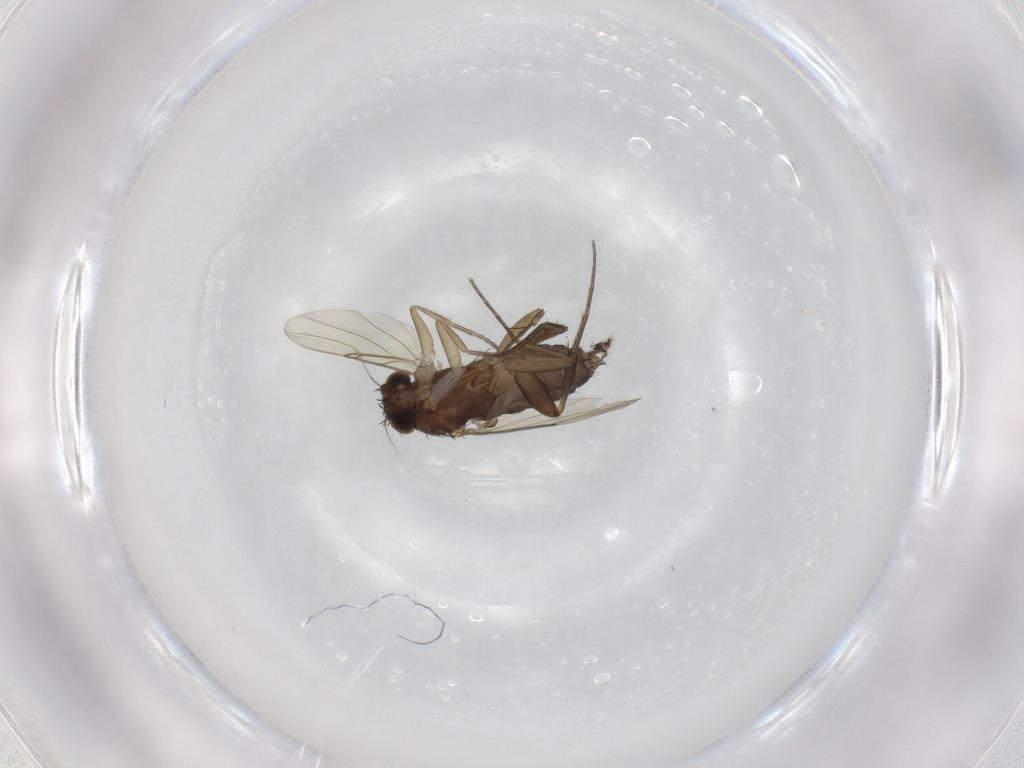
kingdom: Animalia
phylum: Arthropoda
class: Insecta
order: Diptera
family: Phoridae
